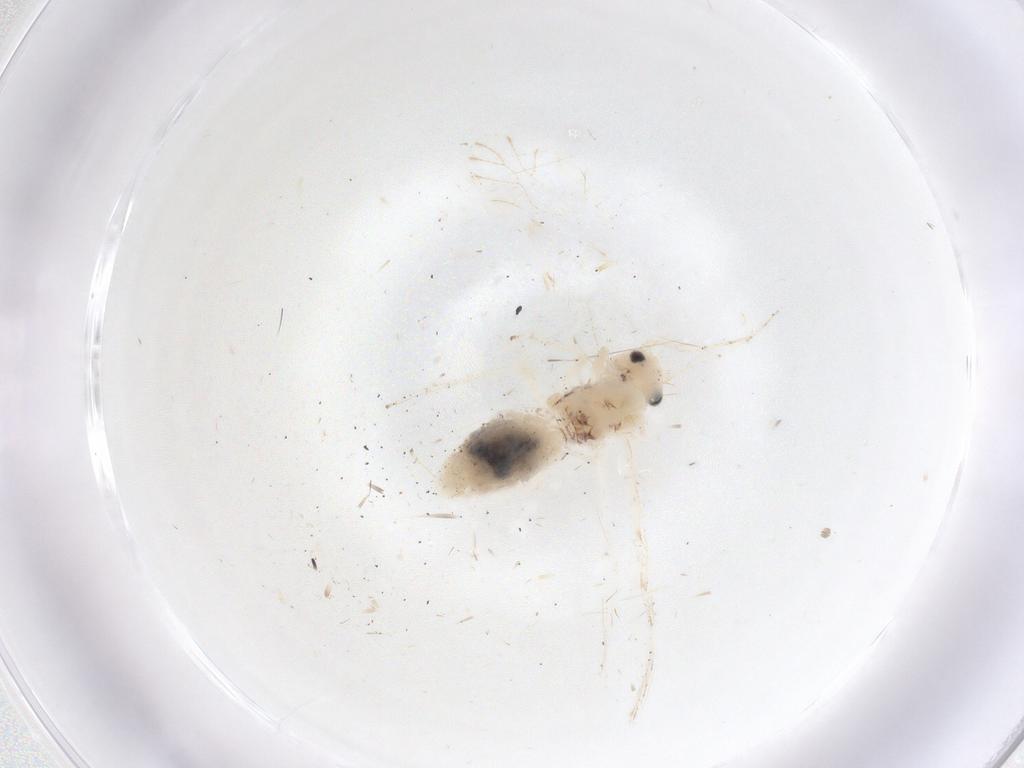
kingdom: Animalia
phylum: Arthropoda
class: Insecta
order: Psocodea
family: Trichopsocidae
